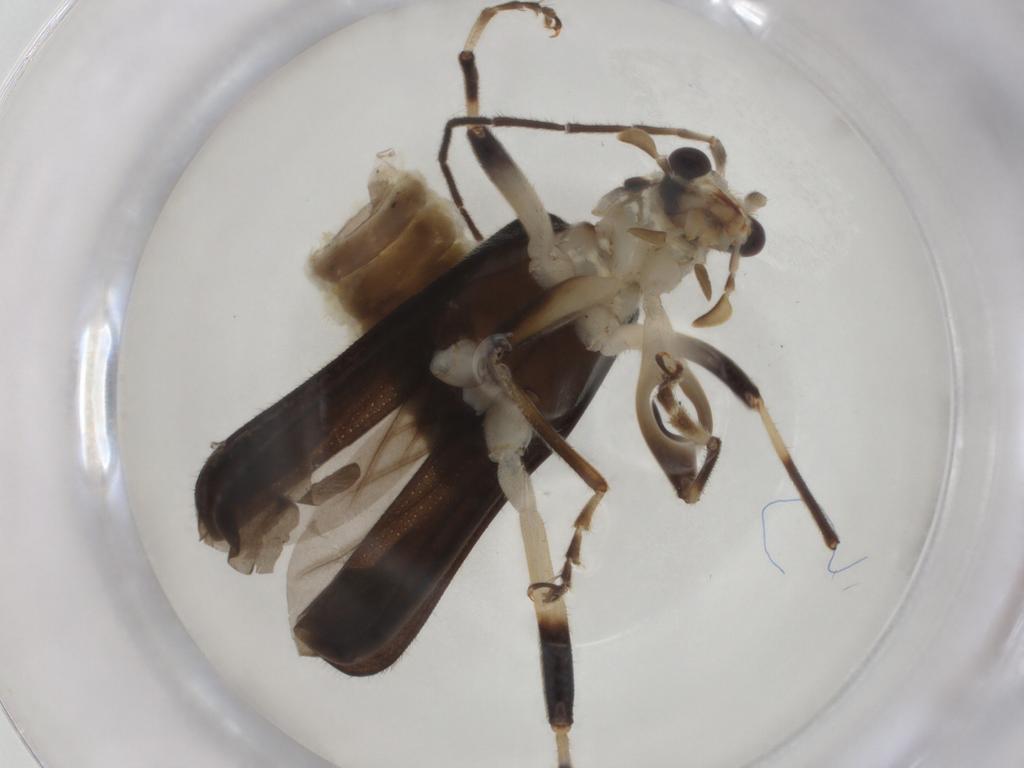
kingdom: Animalia
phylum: Arthropoda
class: Insecta
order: Coleoptera
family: Cantharidae
